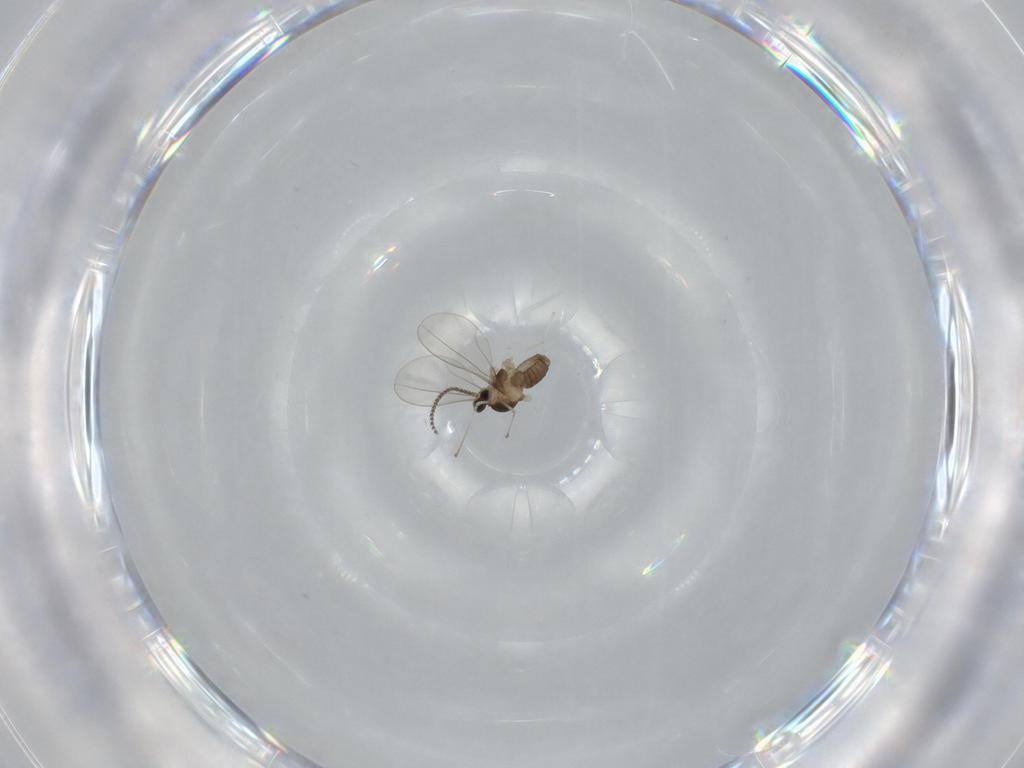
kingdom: Animalia
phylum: Arthropoda
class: Insecta
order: Diptera
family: Cecidomyiidae
